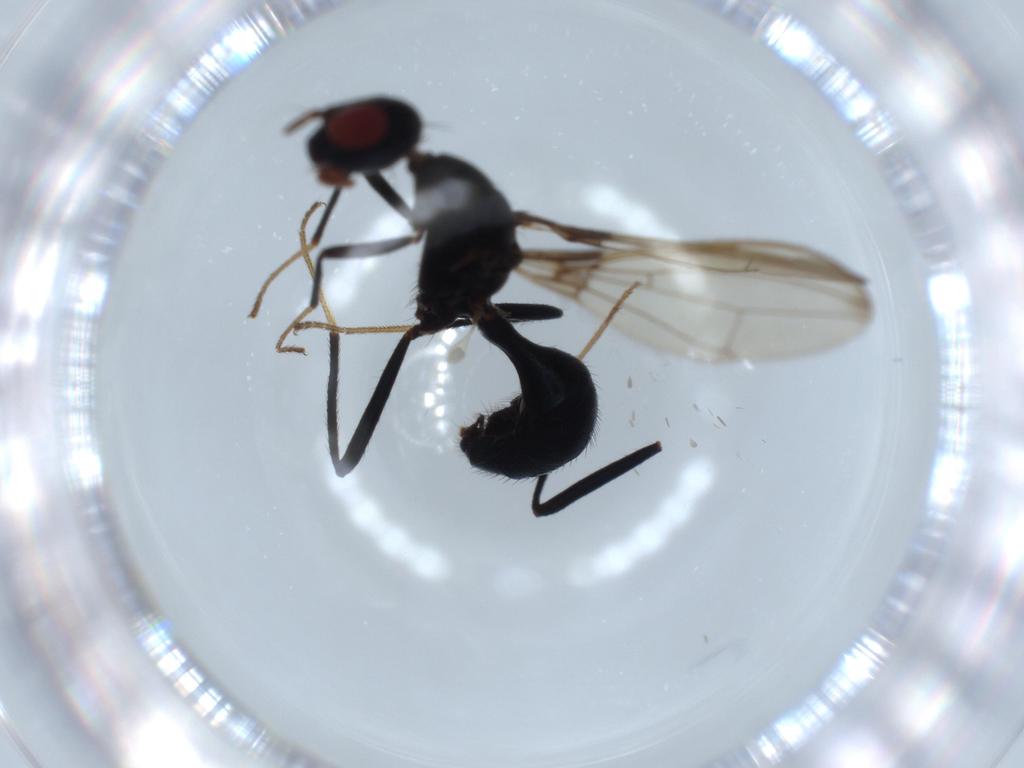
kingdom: Animalia
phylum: Arthropoda
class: Insecta
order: Diptera
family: Richardiidae
